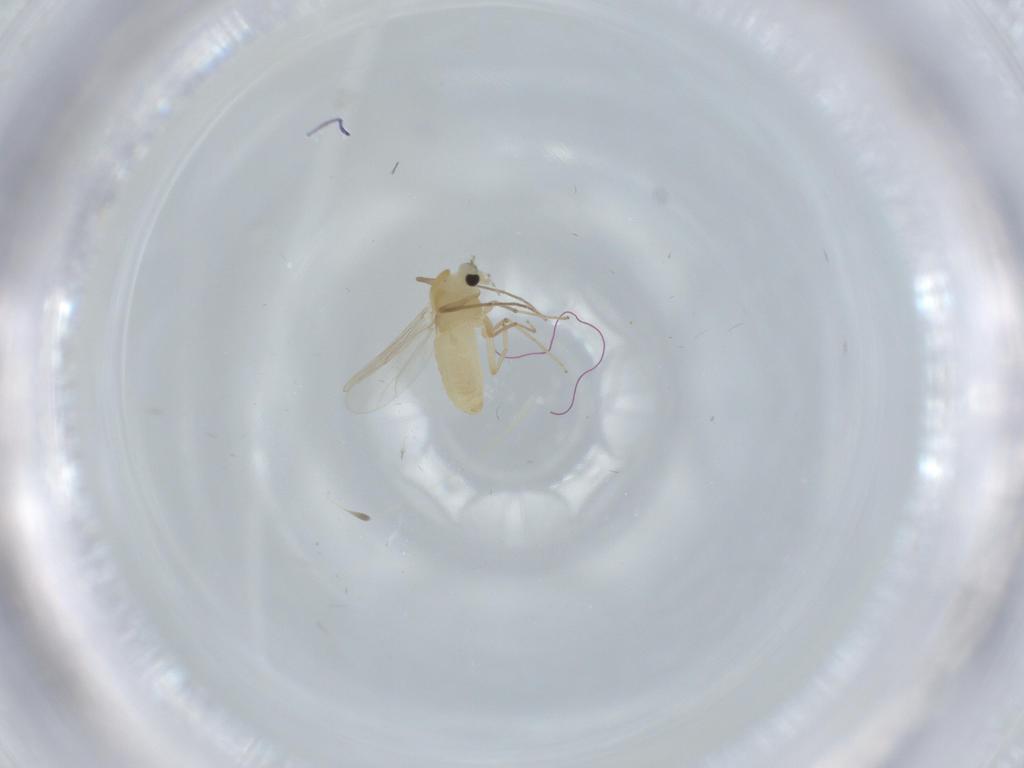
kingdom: Animalia
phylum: Arthropoda
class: Insecta
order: Diptera
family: Chironomidae
